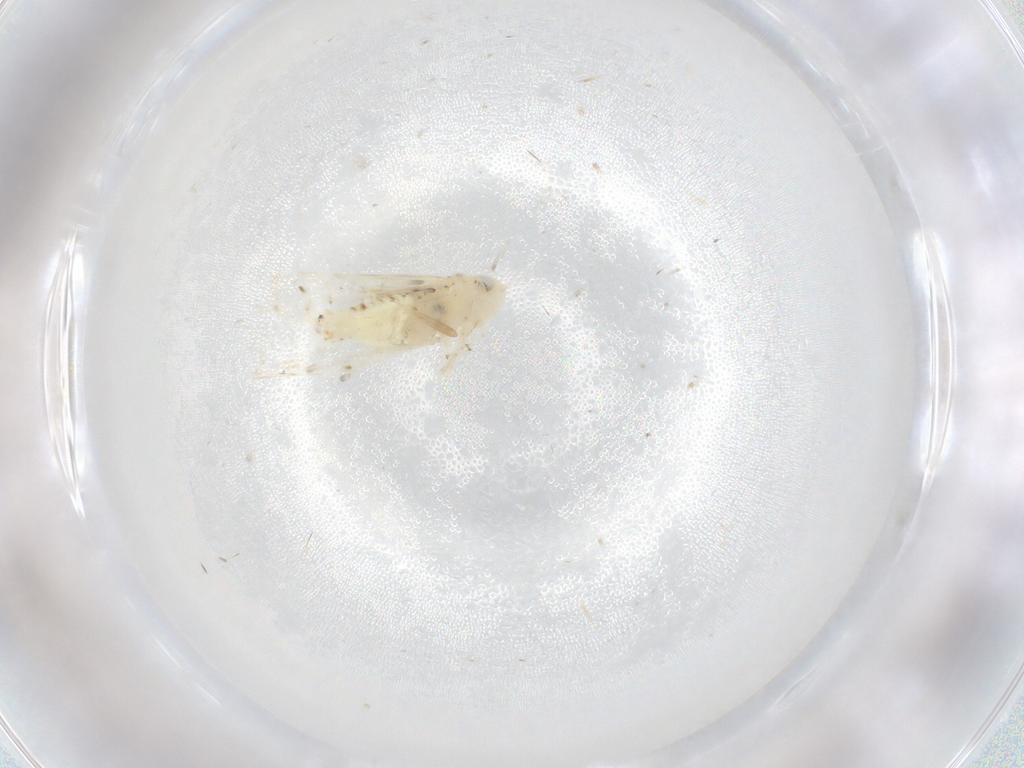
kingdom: Animalia
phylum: Arthropoda
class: Insecta
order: Hemiptera
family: Cicadellidae
